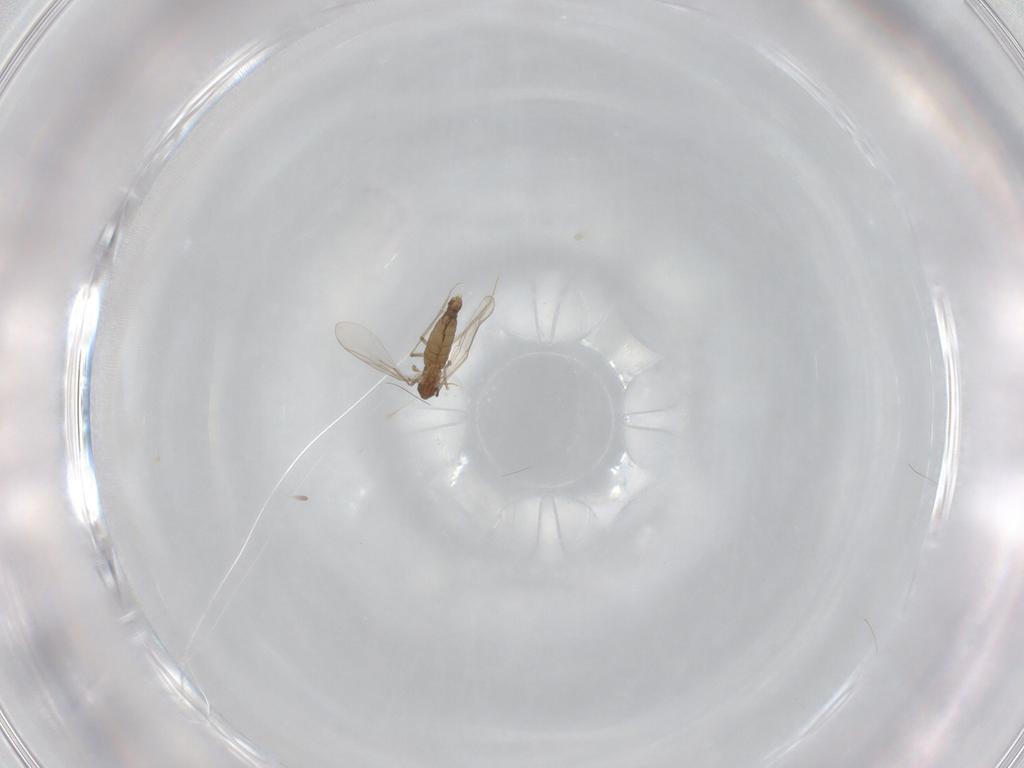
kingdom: Animalia
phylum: Arthropoda
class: Insecta
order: Diptera
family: Chironomidae
